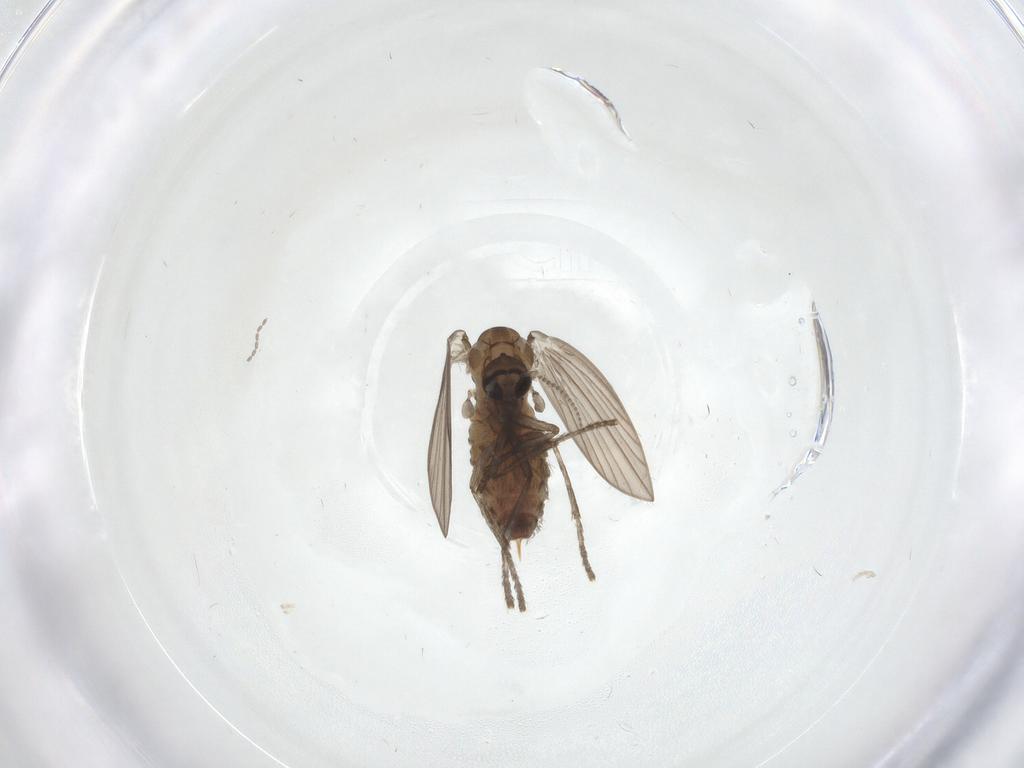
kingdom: Animalia
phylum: Arthropoda
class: Insecta
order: Diptera
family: Psychodidae
